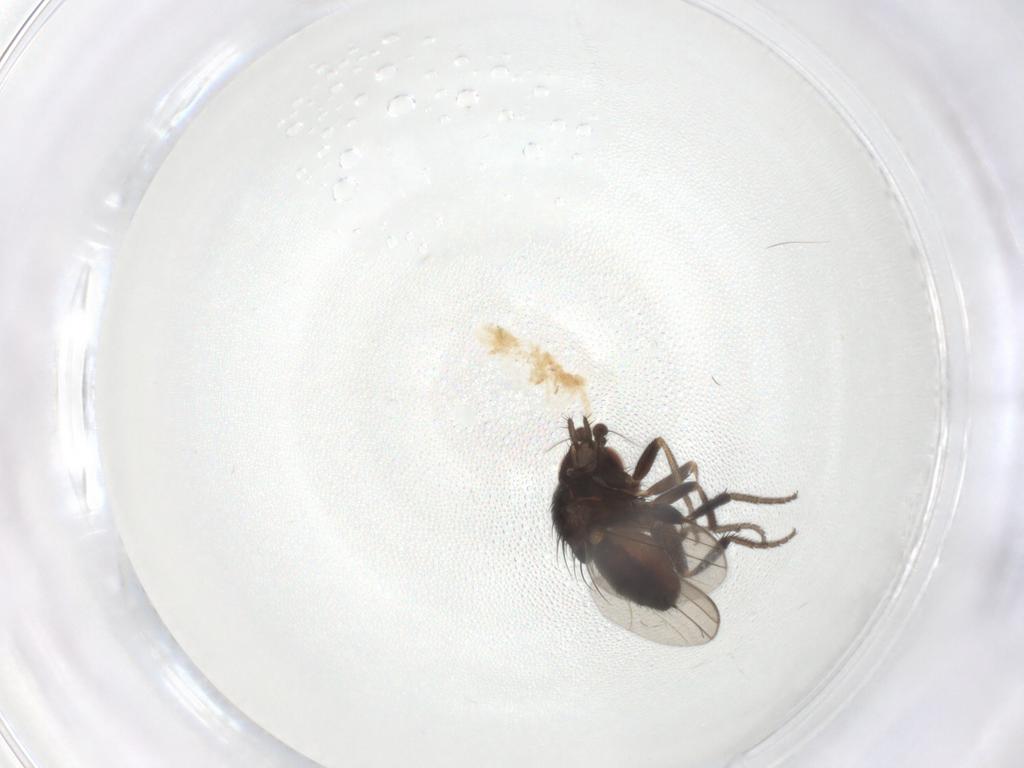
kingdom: Animalia
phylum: Arthropoda
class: Insecta
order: Diptera
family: Milichiidae
